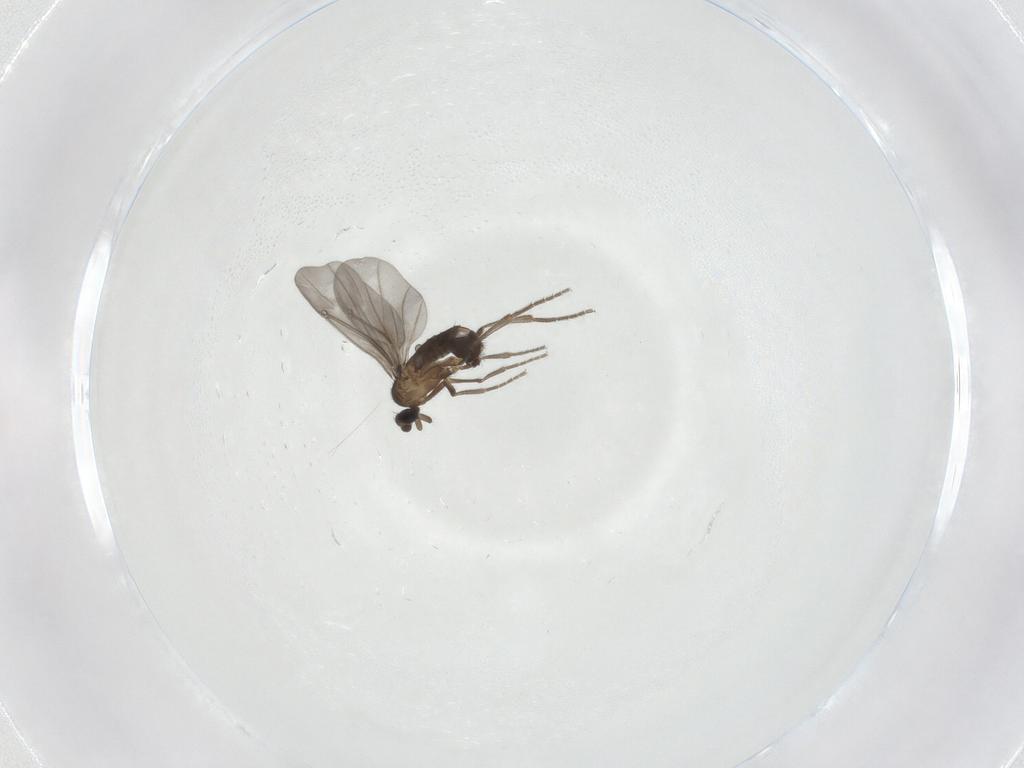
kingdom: Animalia
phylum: Arthropoda
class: Insecta
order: Diptera
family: Phoridae
